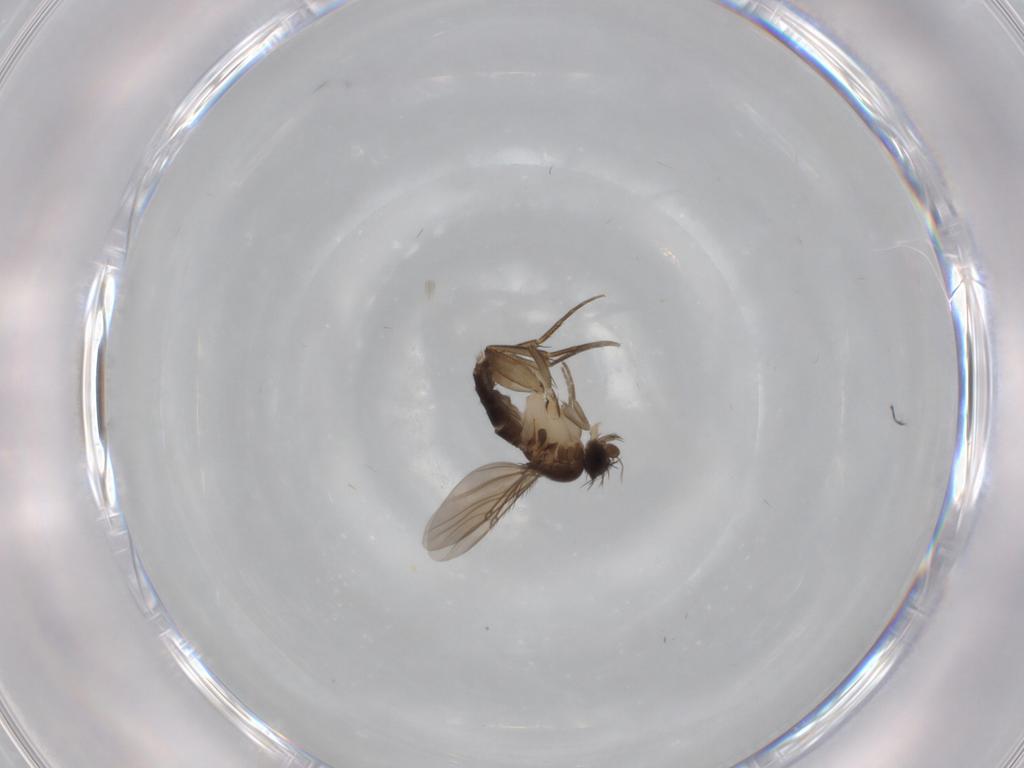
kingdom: Animalia
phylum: Arthropoda
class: Insecta
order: Diptera
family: Phoridae
